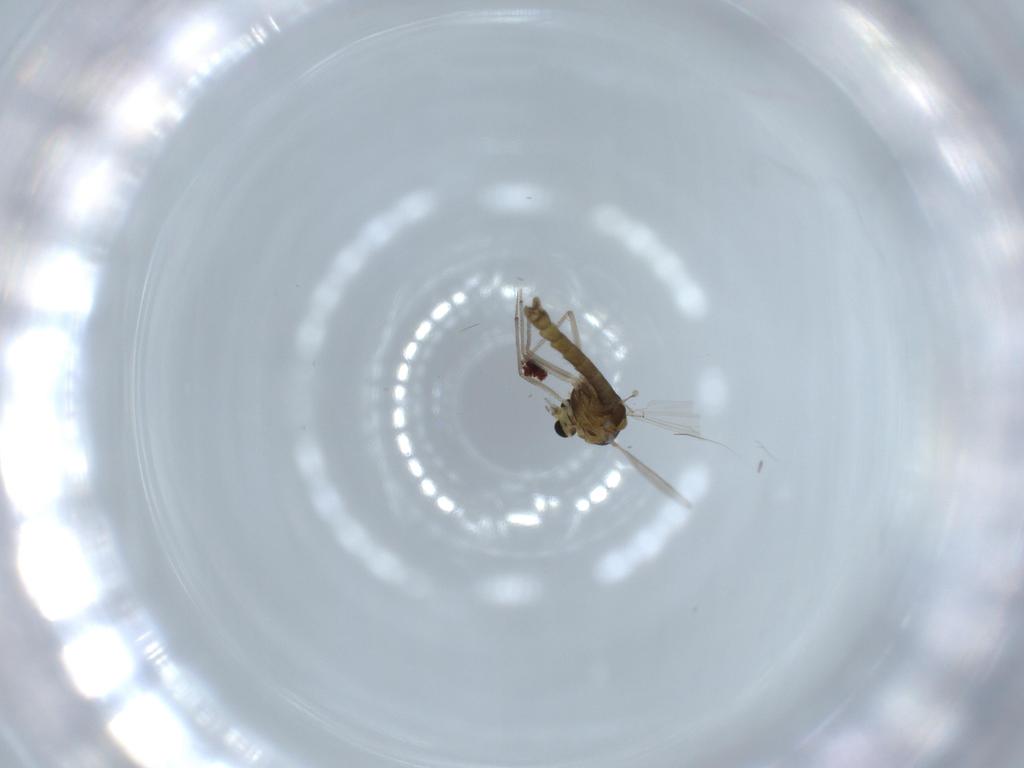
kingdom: Animalia
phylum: Arthropoda
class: Insecta
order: Diptera
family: Chironomidae
